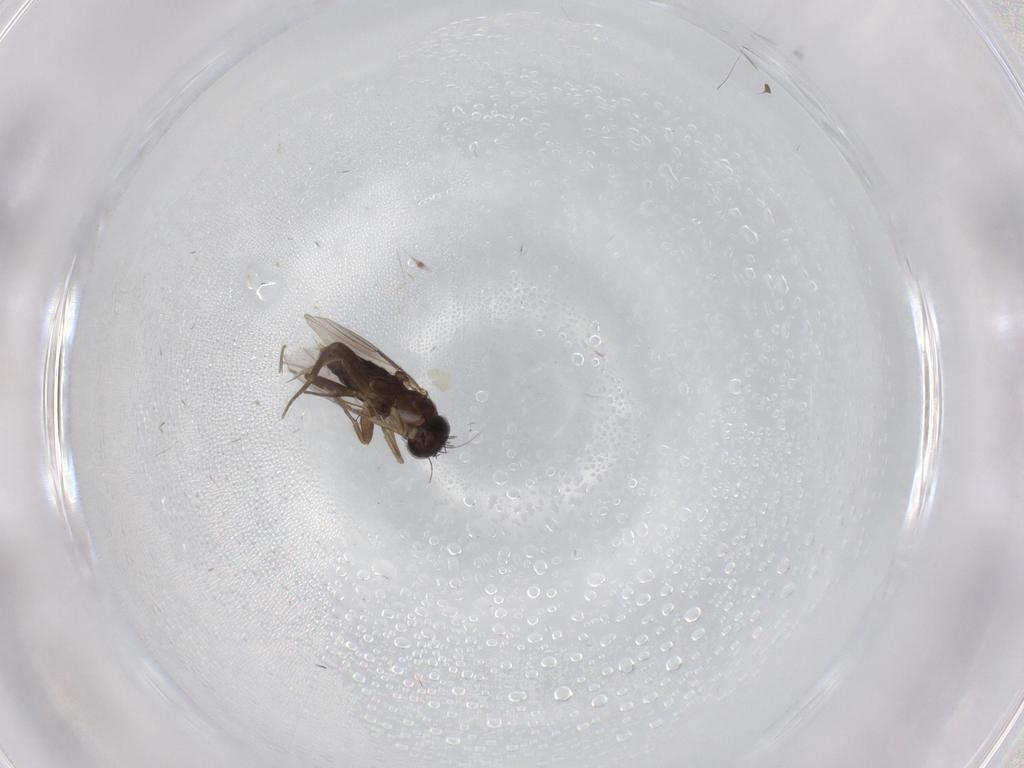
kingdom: Animalia
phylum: Arthropoda
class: Insecta
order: Diptera
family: Phoridae
